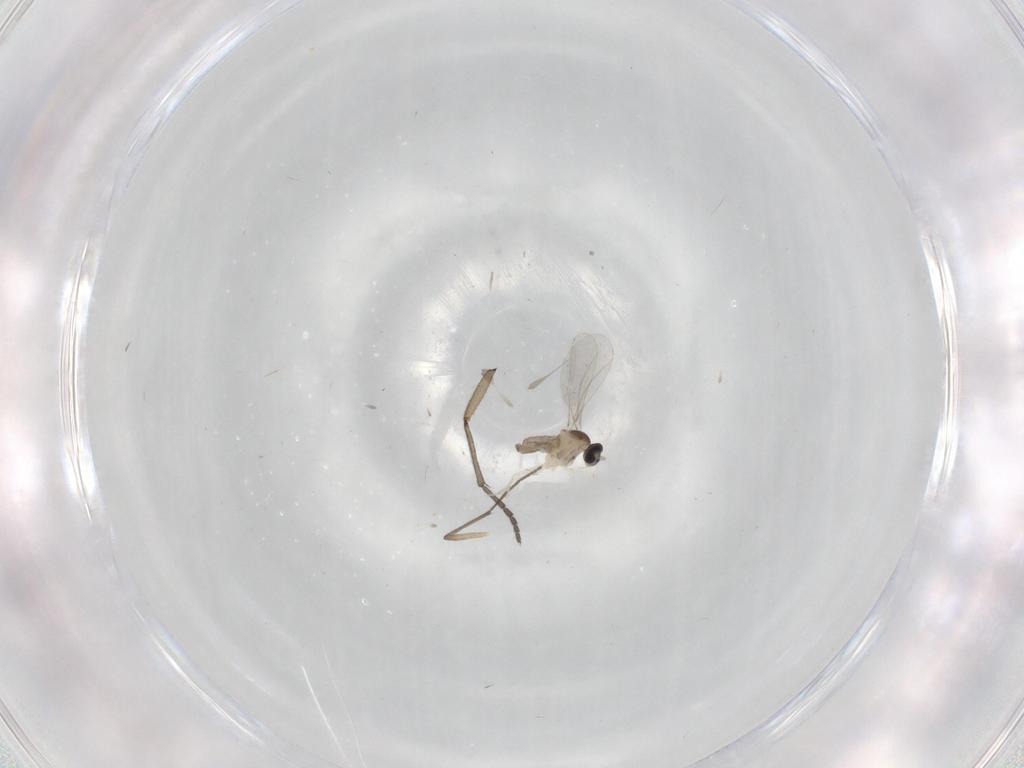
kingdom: Animalia
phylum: Arthropoda
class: Insecta
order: Diptera
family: Sciaridae
